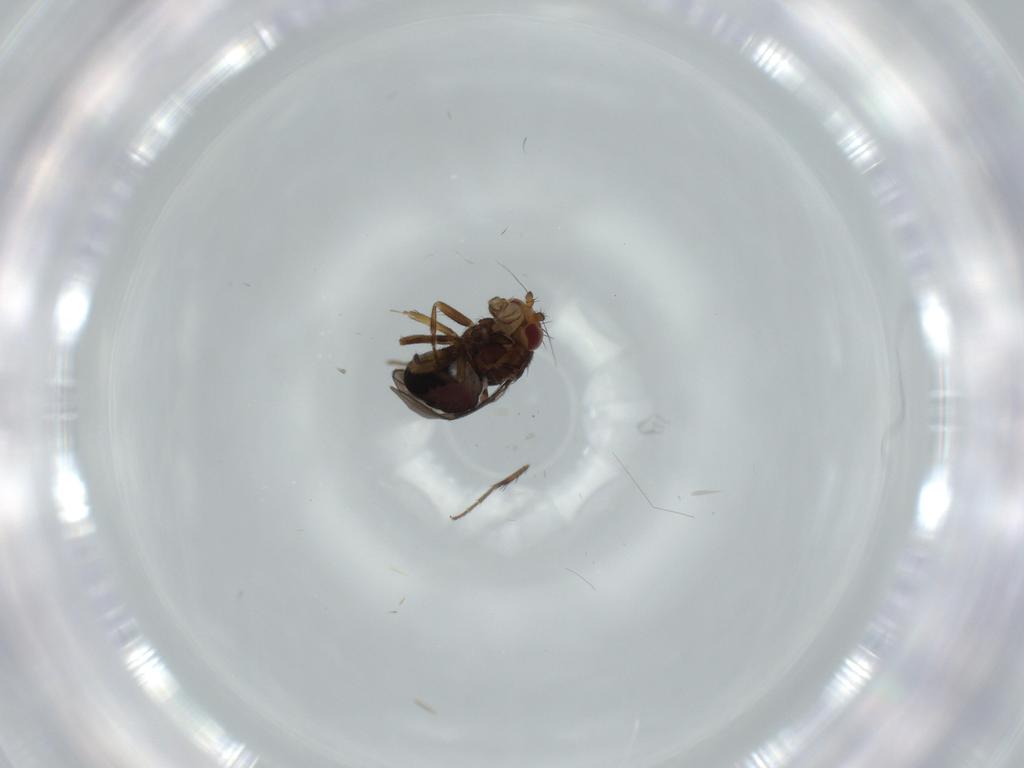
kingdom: Animalia
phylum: Arthropoda
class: Insecta
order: Diptera
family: Sphaeroceridae
